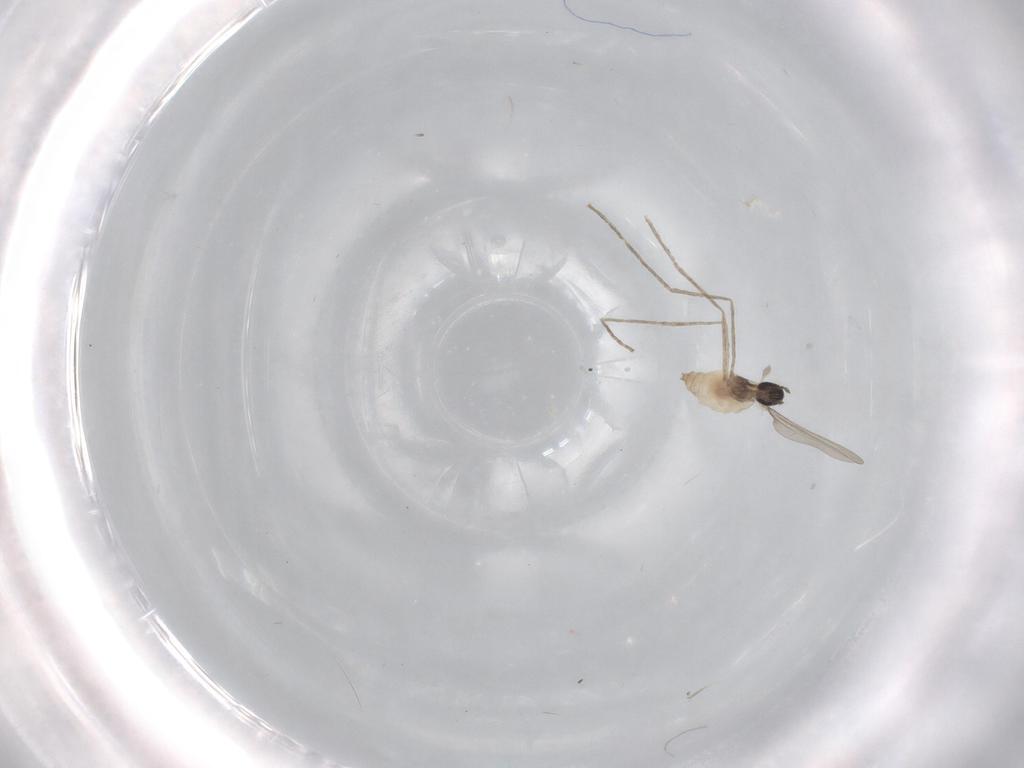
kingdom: Animalia
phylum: Arthropoda
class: Insecta
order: Diptera
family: Cecidomyiidae
